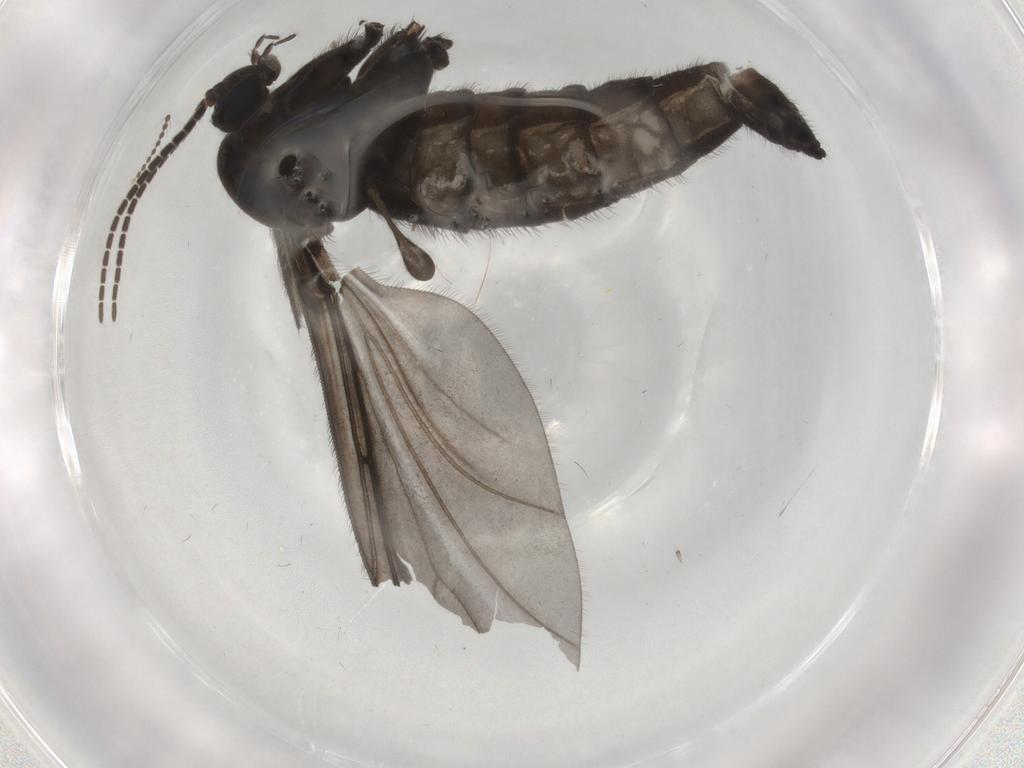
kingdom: Animalia
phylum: Arthropoda
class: Insecta
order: Diptera
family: Sciaridae
